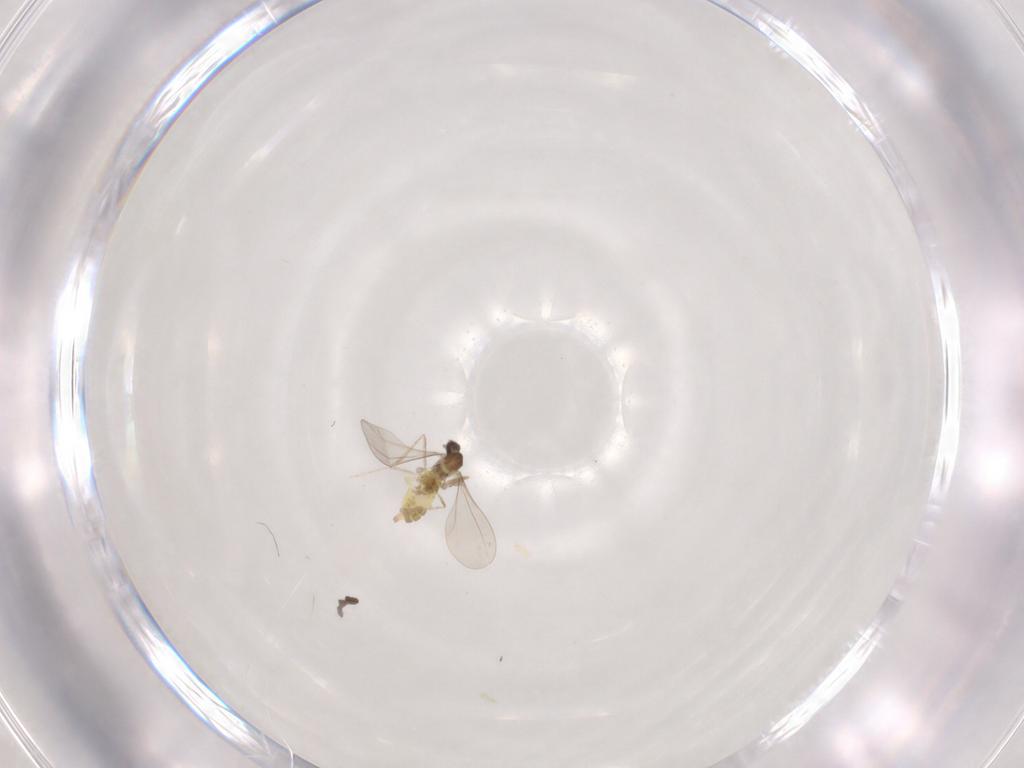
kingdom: Animalia
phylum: Arthropoda
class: Insecta
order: Diptera
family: Cecidomyiidae
